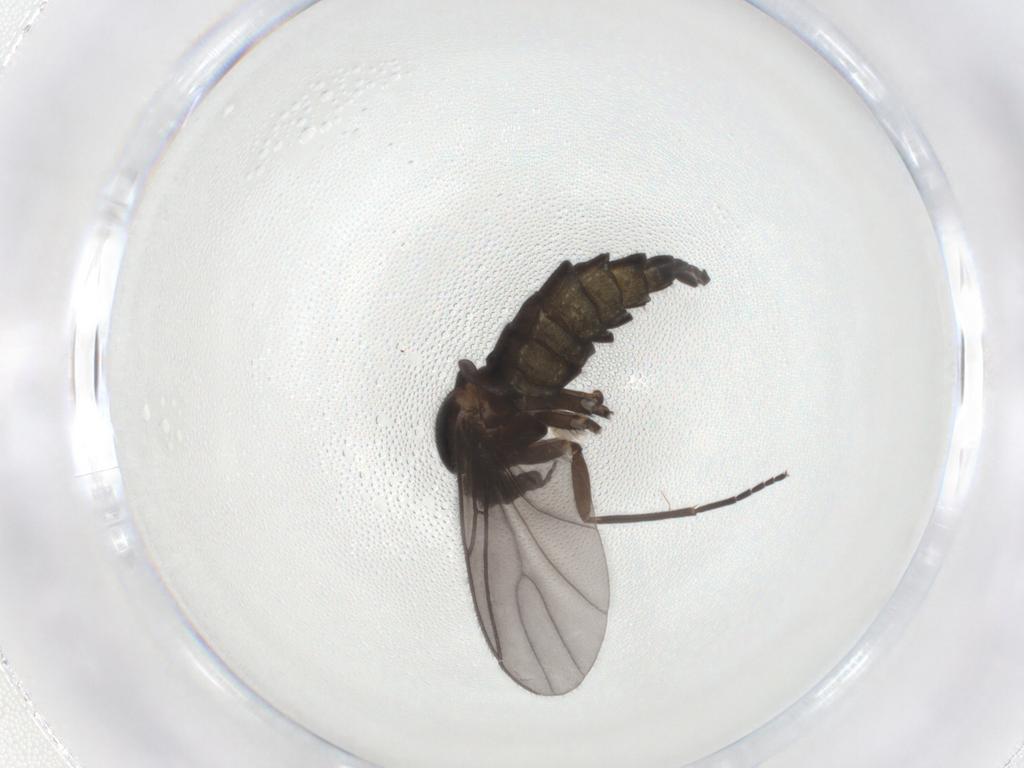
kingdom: Animalia
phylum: Arthropoda
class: Insecta
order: Diptera
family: Sciaridae
